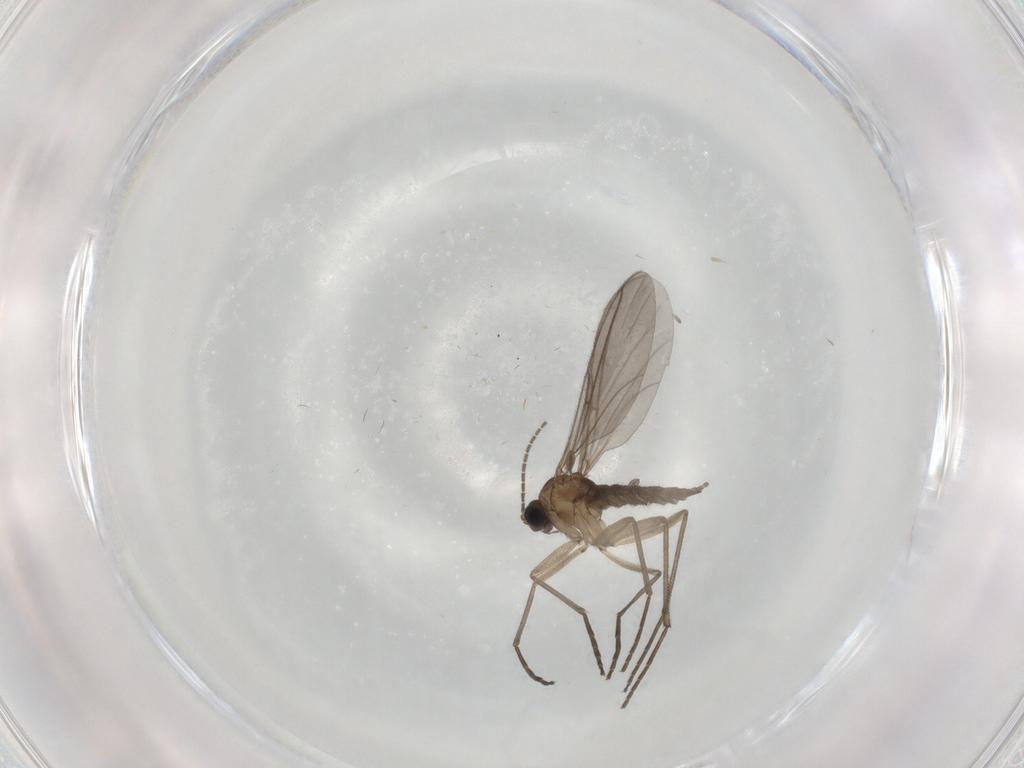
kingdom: Animalia
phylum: Arthropoda
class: Insecta
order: Diptera
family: Sciaridae
